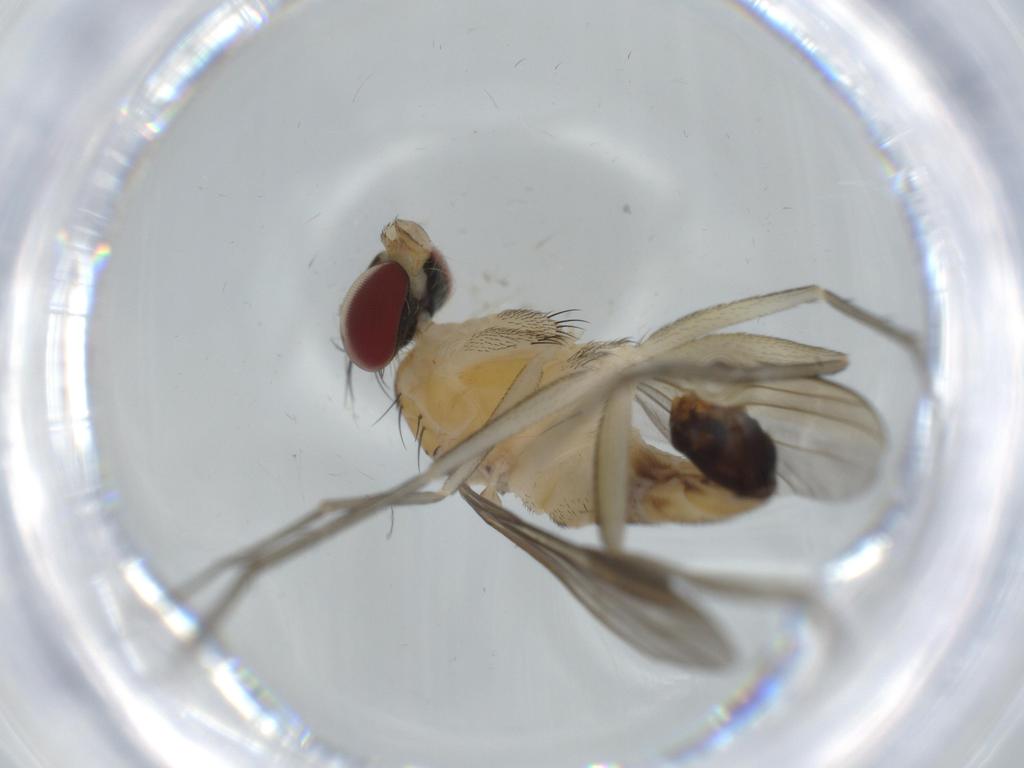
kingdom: Animalia
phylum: Arthropoda
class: Insecta
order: Diptera
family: Dolichopodidae
